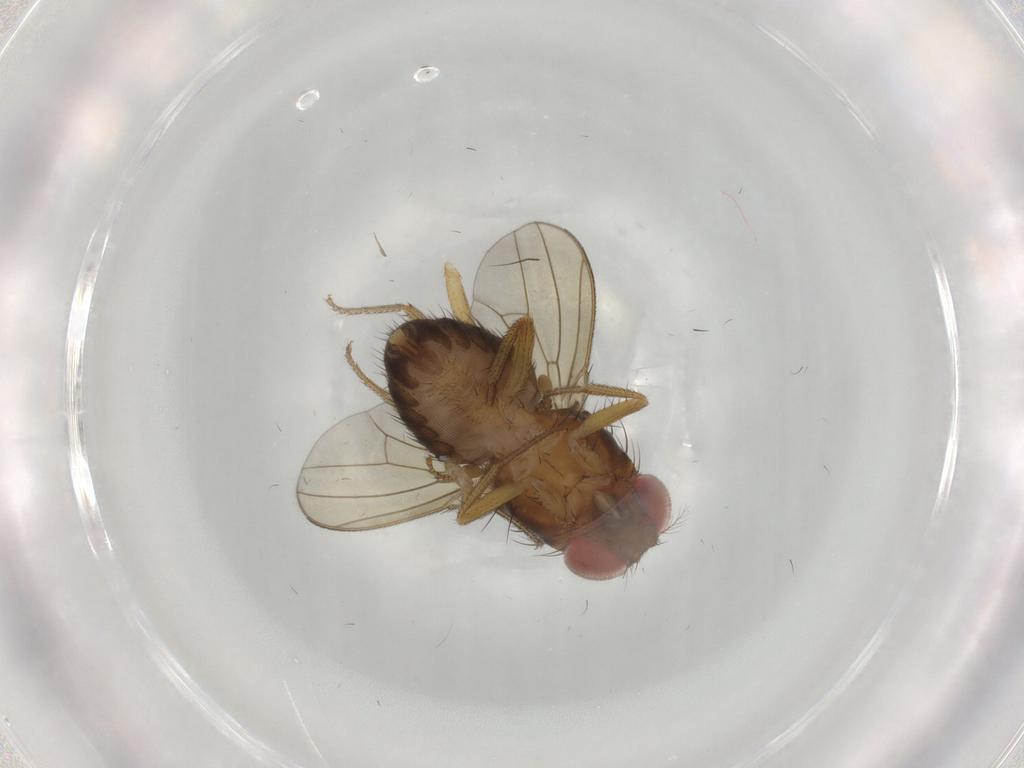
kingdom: Animalia
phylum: Arthropoda
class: Insecta
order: Diptera
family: Drosophilidae
